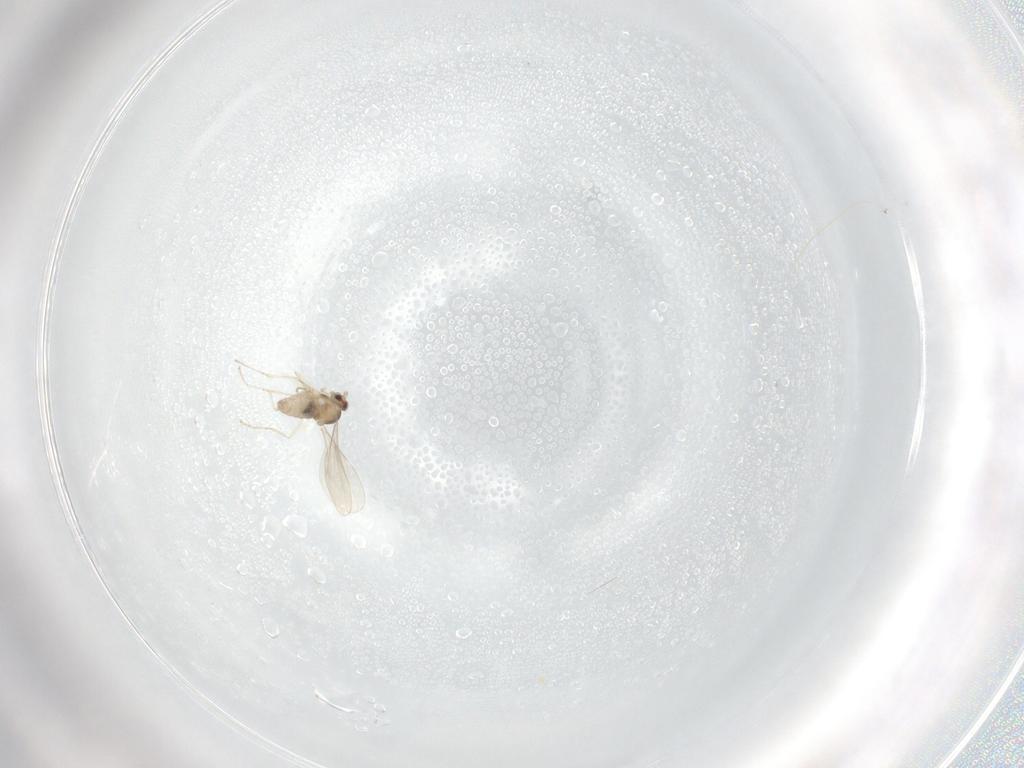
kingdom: Animalia
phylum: Arthropoda
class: Insecta
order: Diptera
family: Cecidomyiidae
